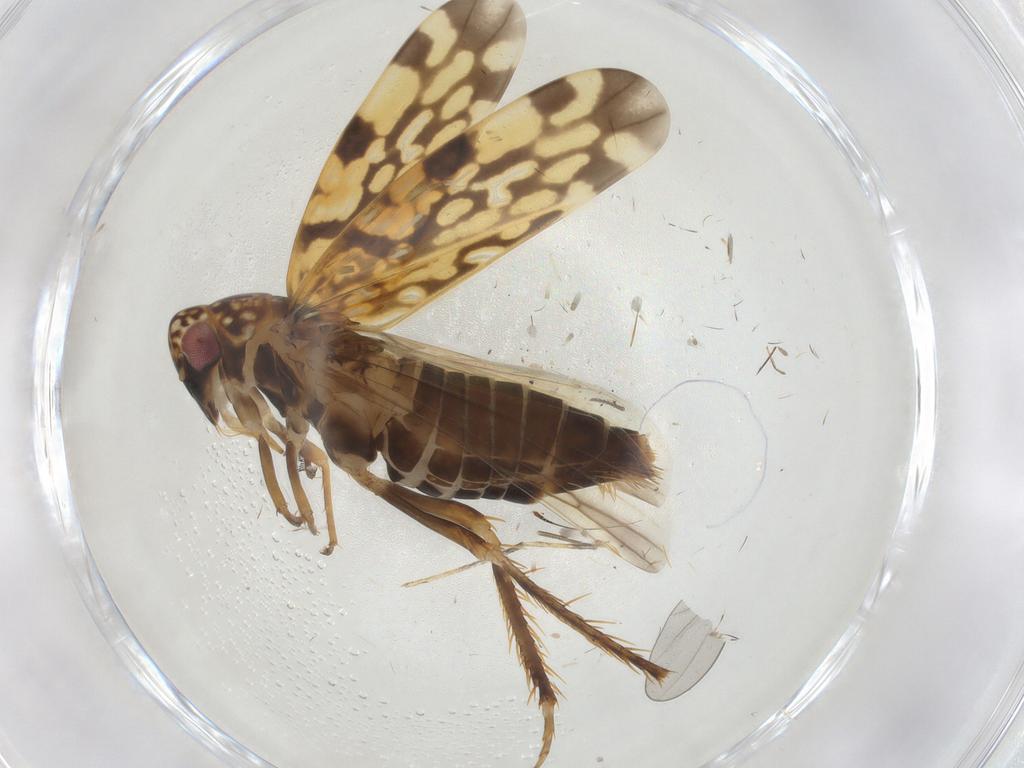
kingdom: Animalia
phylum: Arthropoda
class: Insecta
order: Hemiptera
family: Cicadellidae
